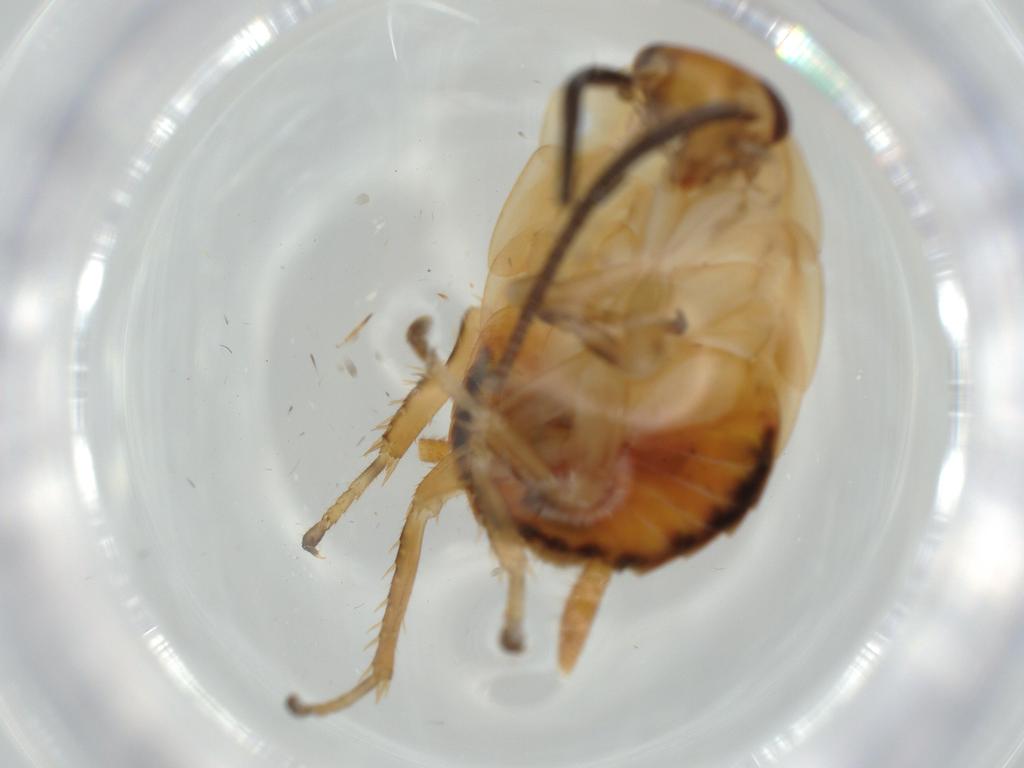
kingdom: Animalia
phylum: Arthropoda
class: Insecta
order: Blattodea
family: Ectobiidae
